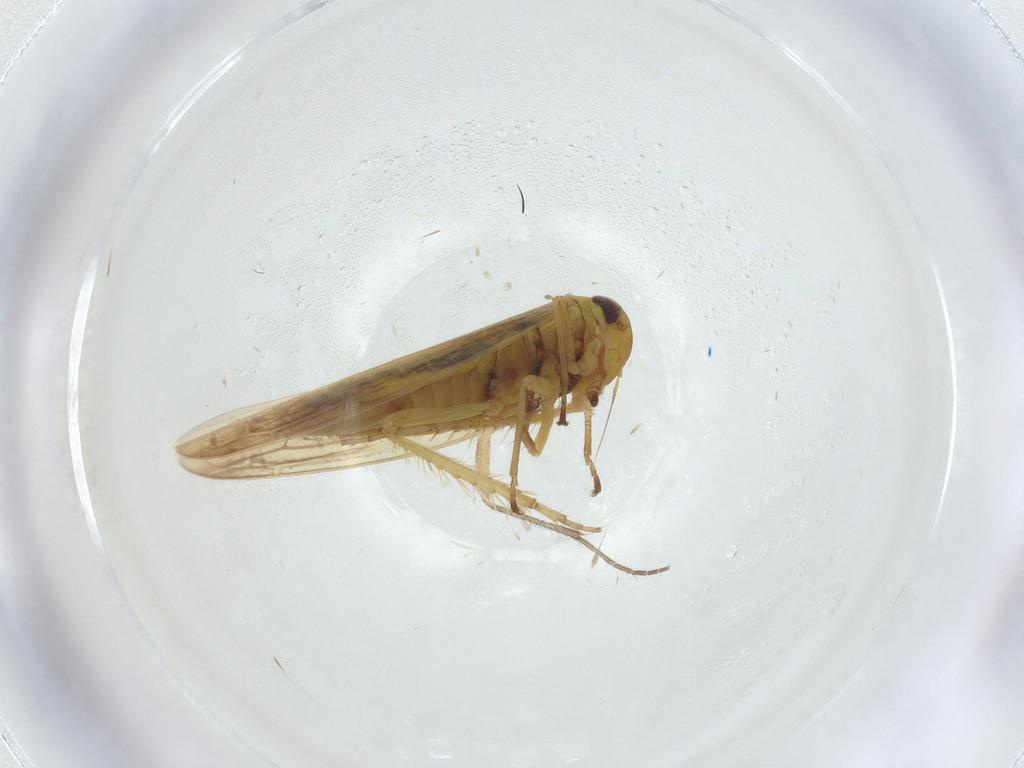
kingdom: Animalia
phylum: Arthropoda
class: Insecta
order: Hemiptera
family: Cicadellidae
